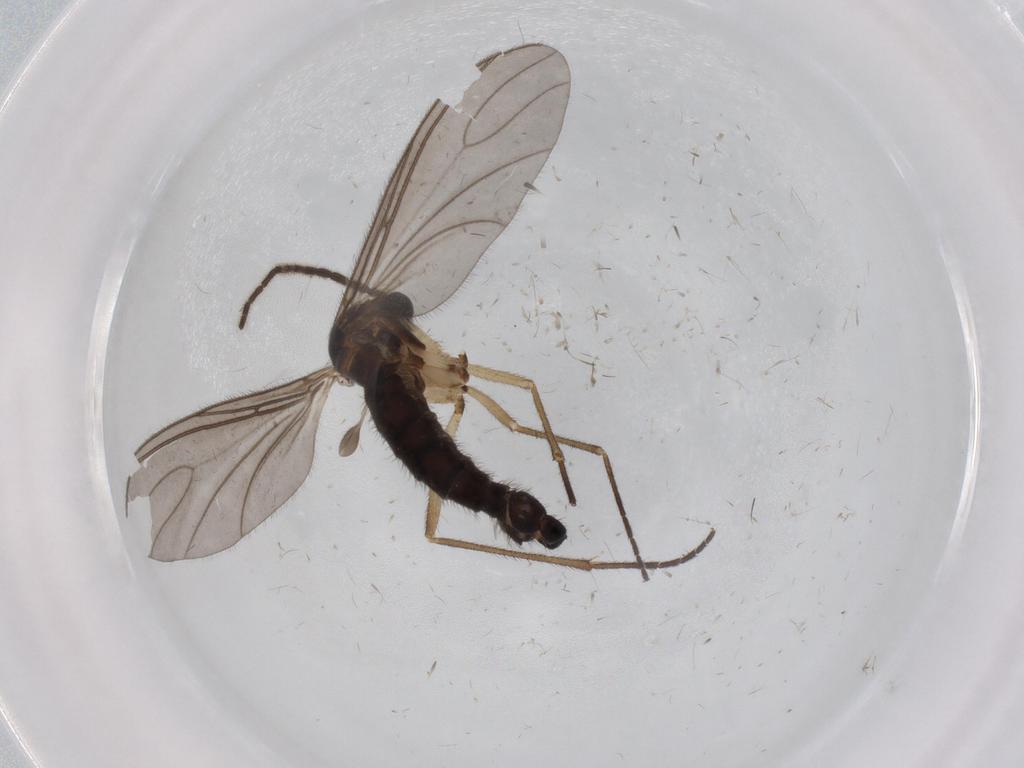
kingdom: Animalia
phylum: Arthropoda
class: Insecta
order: Diptera
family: Sciaridae
